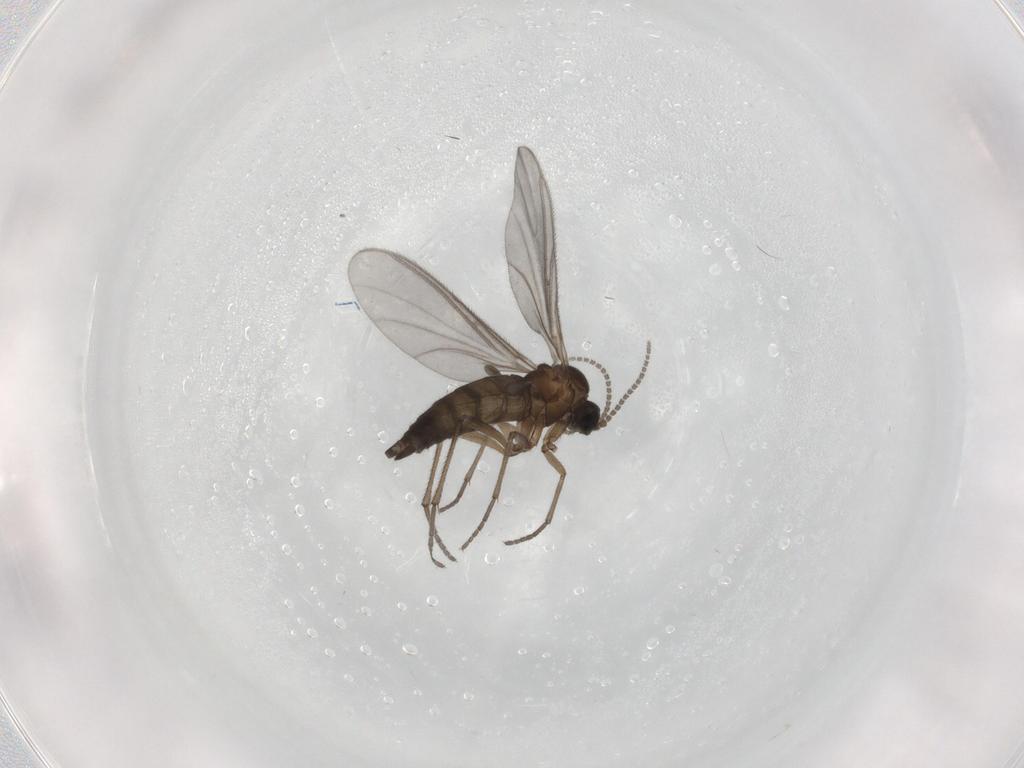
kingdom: Animalia
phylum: Arthropoda
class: Insecta
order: Diptera
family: Sciaridae
